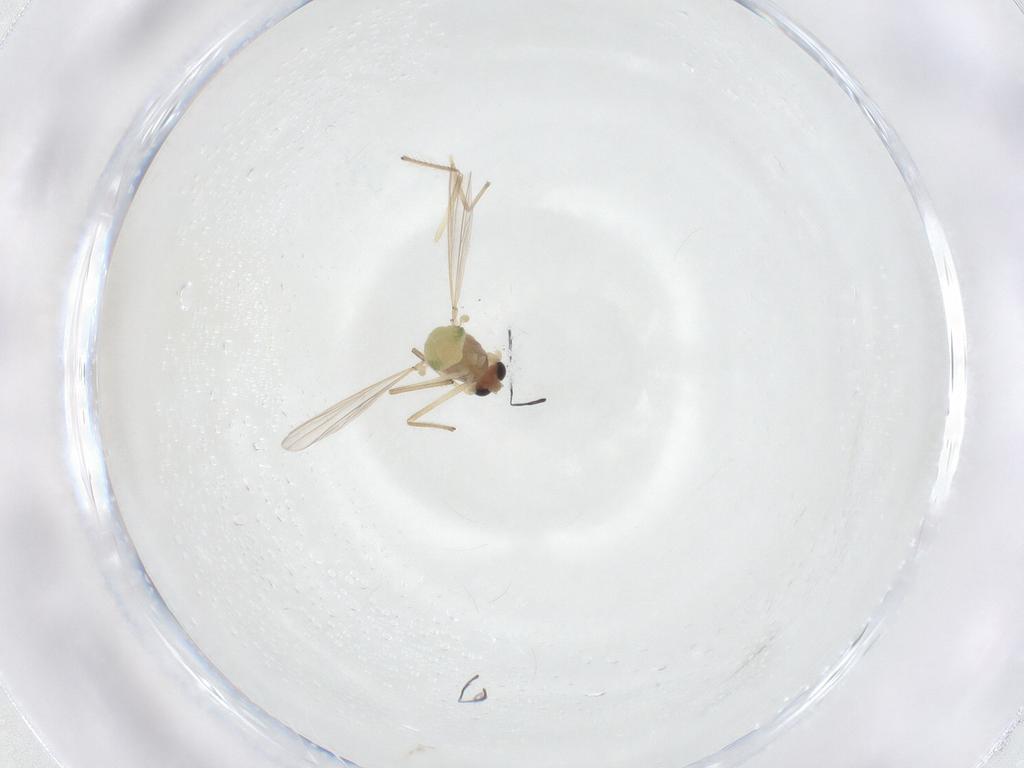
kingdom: Animalia
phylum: Arthropoda
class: Insecta
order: Diptera
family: Chironomidae
